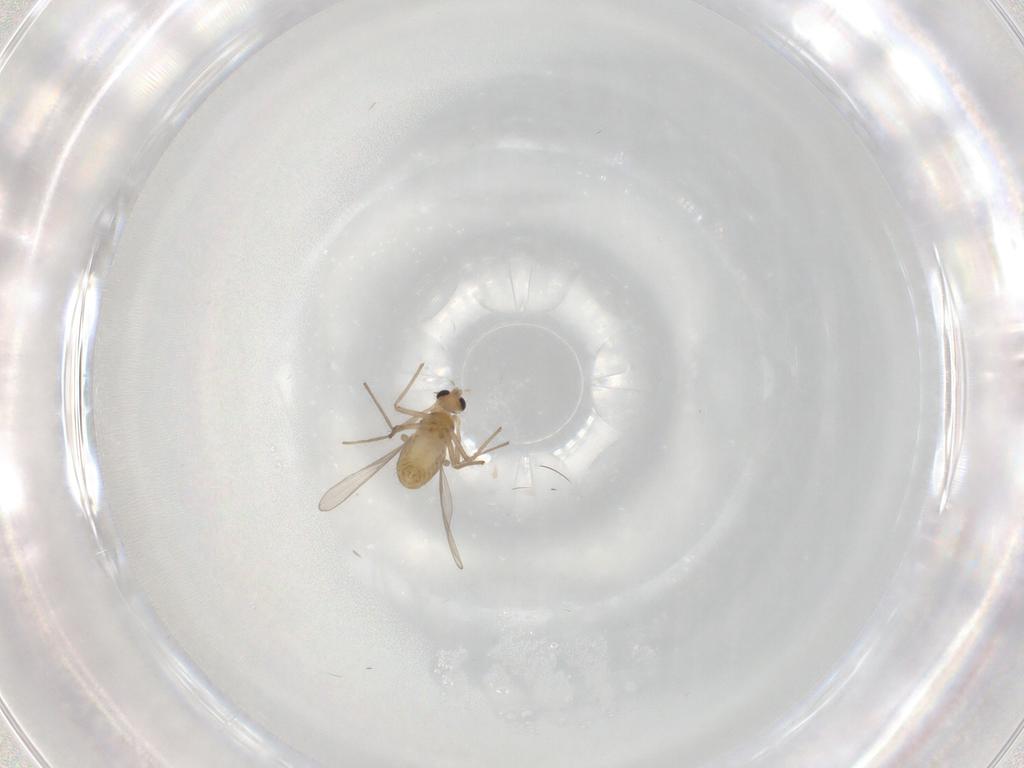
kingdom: Animalia
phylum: Arthropoda
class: Insecta
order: Diptera
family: Chironomidae
